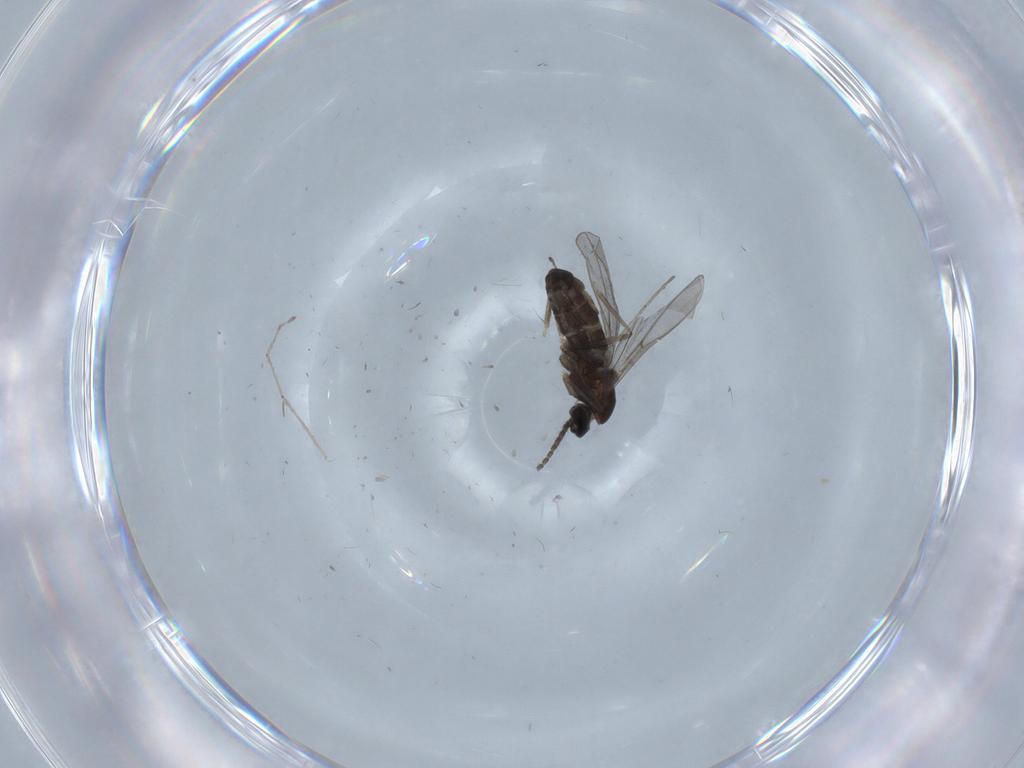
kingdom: Animalia
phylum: Arthropoda
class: Insecta
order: Diptera
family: Cecidomyiidae
